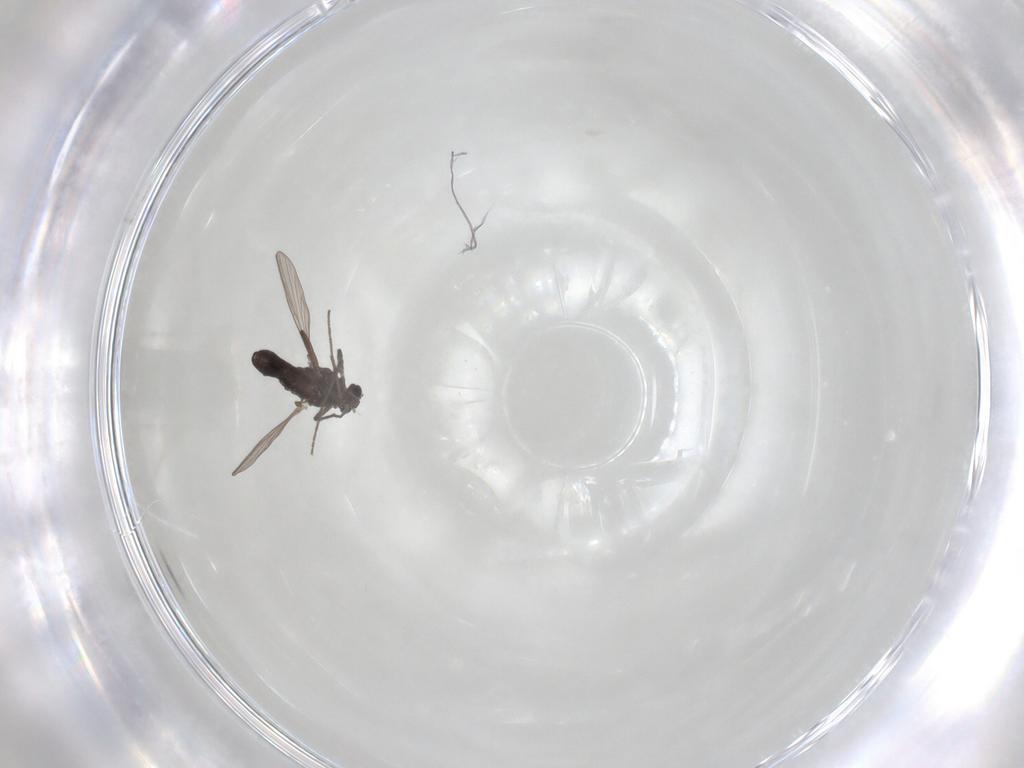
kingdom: Animalia
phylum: Arthropoda
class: Insecta
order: Diptera
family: Chironomidae
